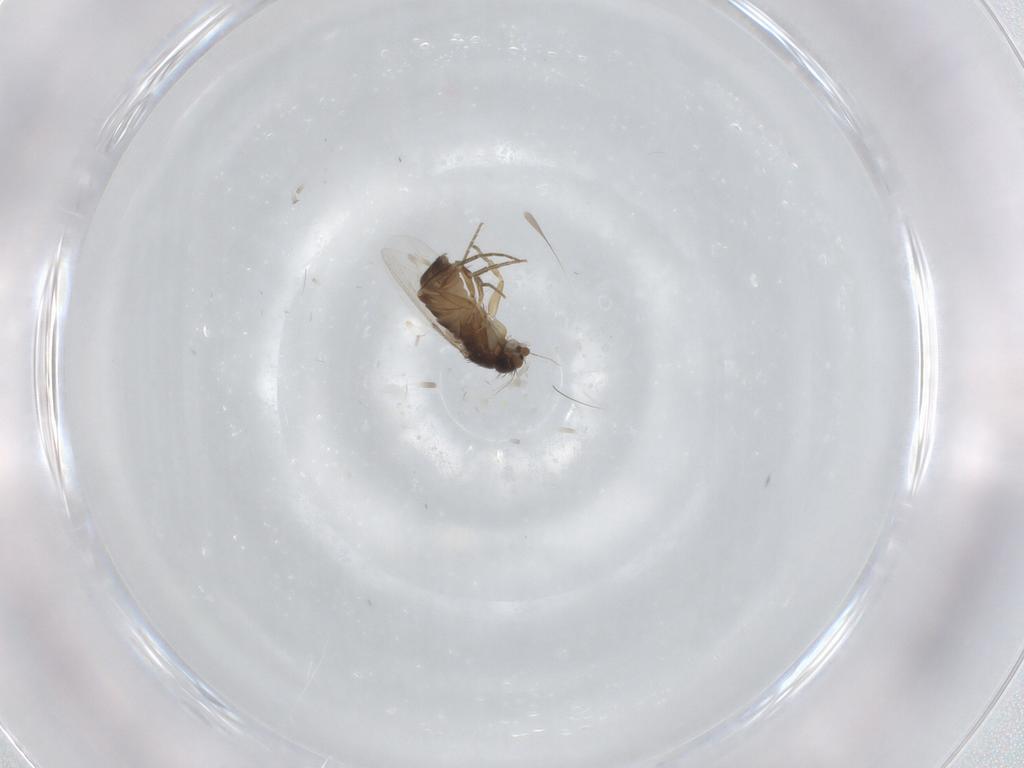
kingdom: Animalia
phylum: Arthropoda
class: Insecta
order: Diptera
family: Phoridae
